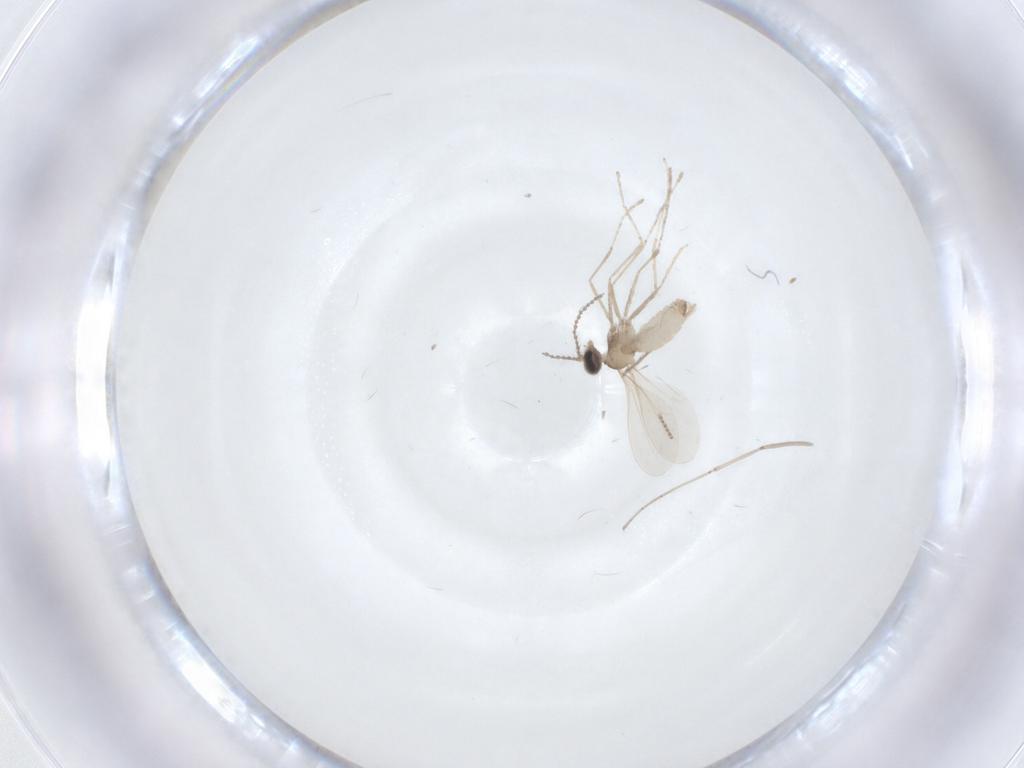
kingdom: Animalia
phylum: Arthropoda
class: Insecta
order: Diptera
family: Cecidomyiidae
